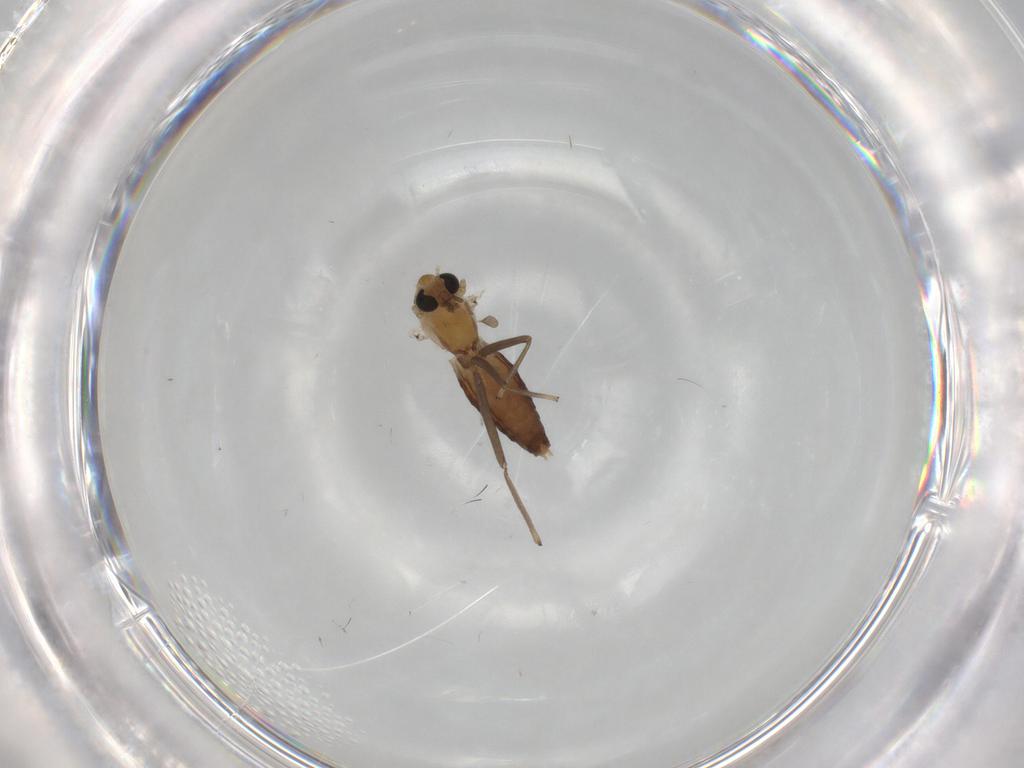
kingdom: Animalia
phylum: Arthropoda
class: Insecta
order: Diptera
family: Chironomidae
